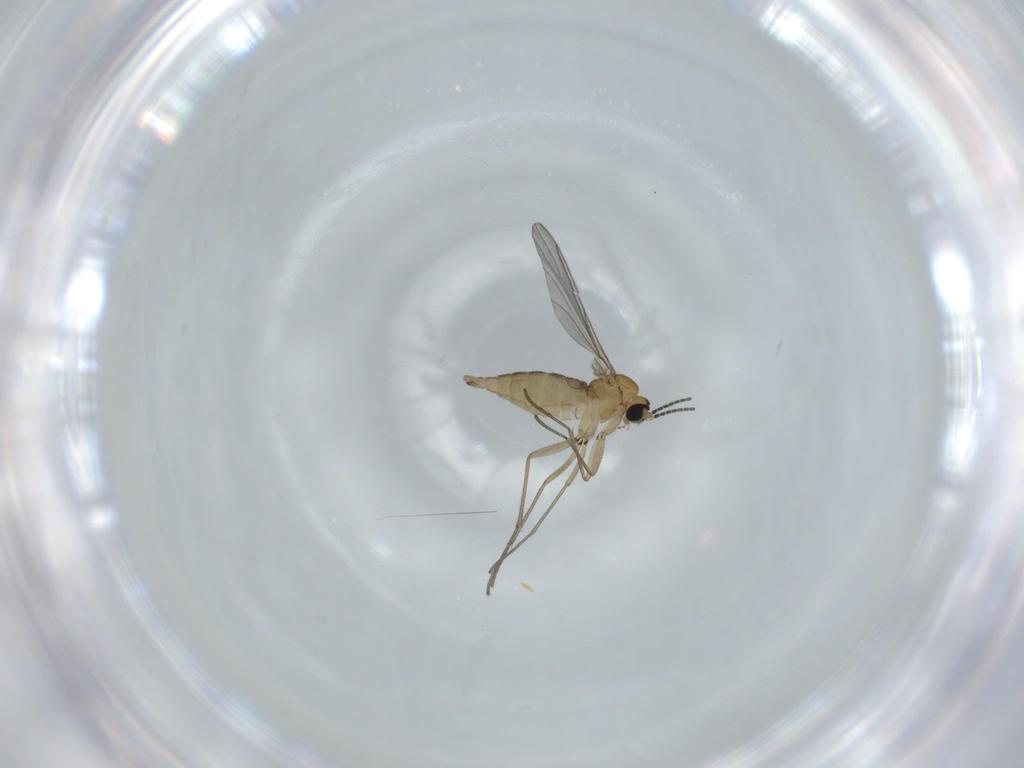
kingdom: Animalia
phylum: Arthropoda
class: Insecta
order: Diptera
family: Sciaridae
